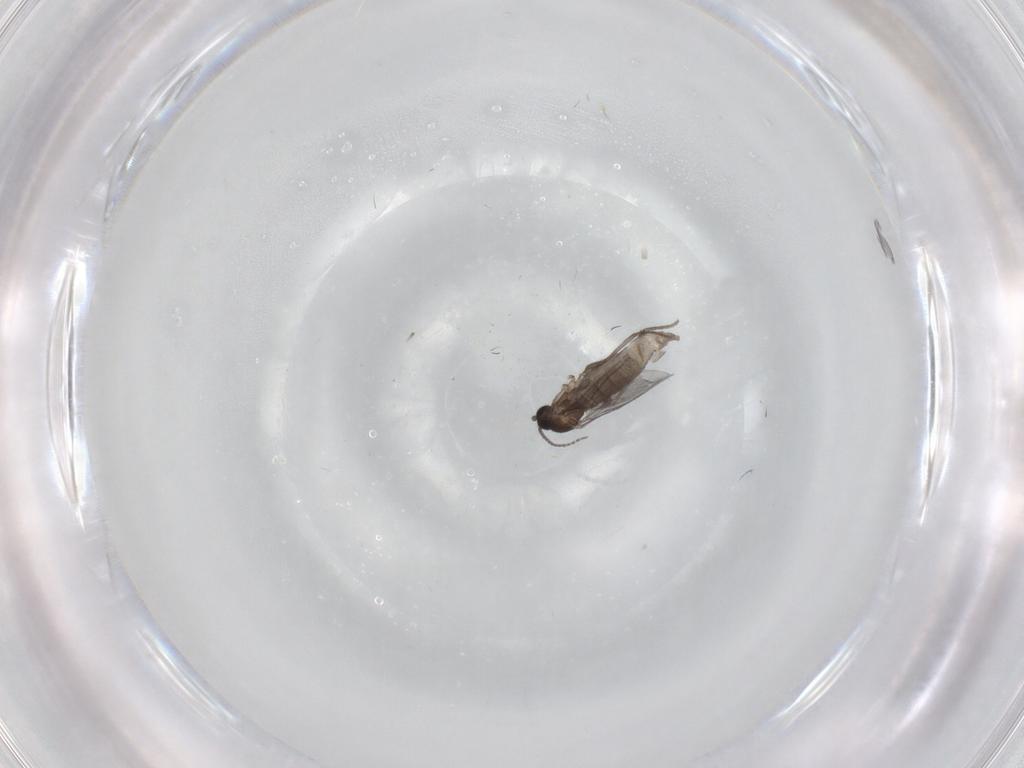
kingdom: Animalia
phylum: Arthropoda
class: Insecta
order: Diptera
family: Sciaridae
